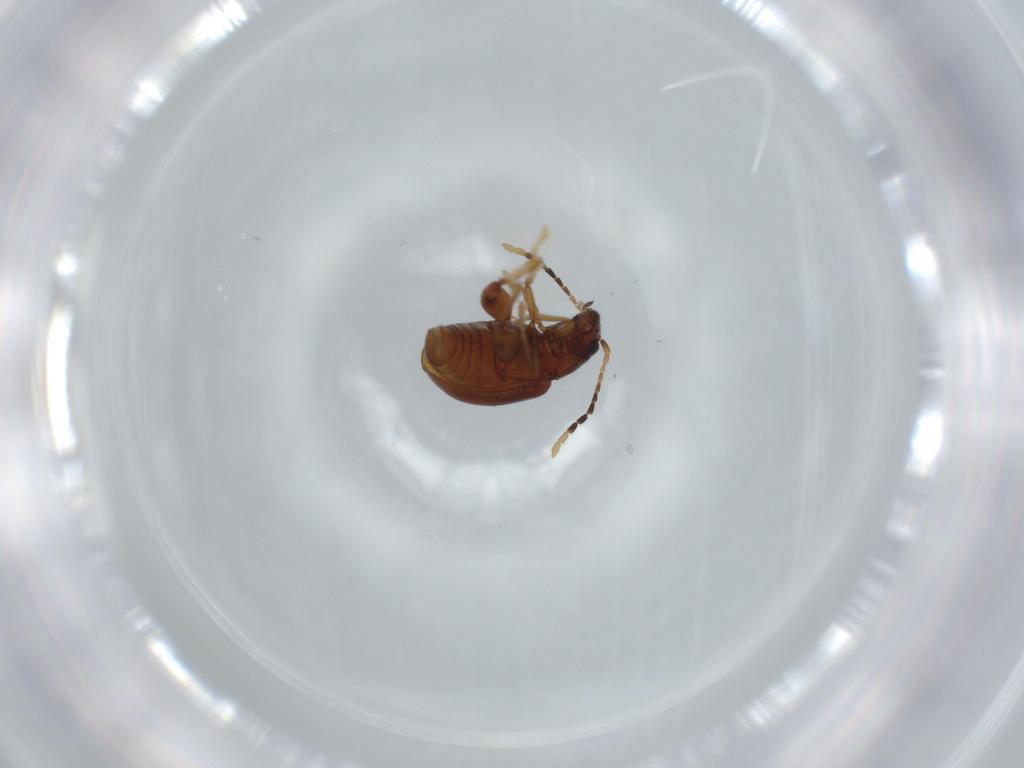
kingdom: Animalia
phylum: Arthropoda
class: Insecta
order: Coleoptera
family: Chrysomelidae
